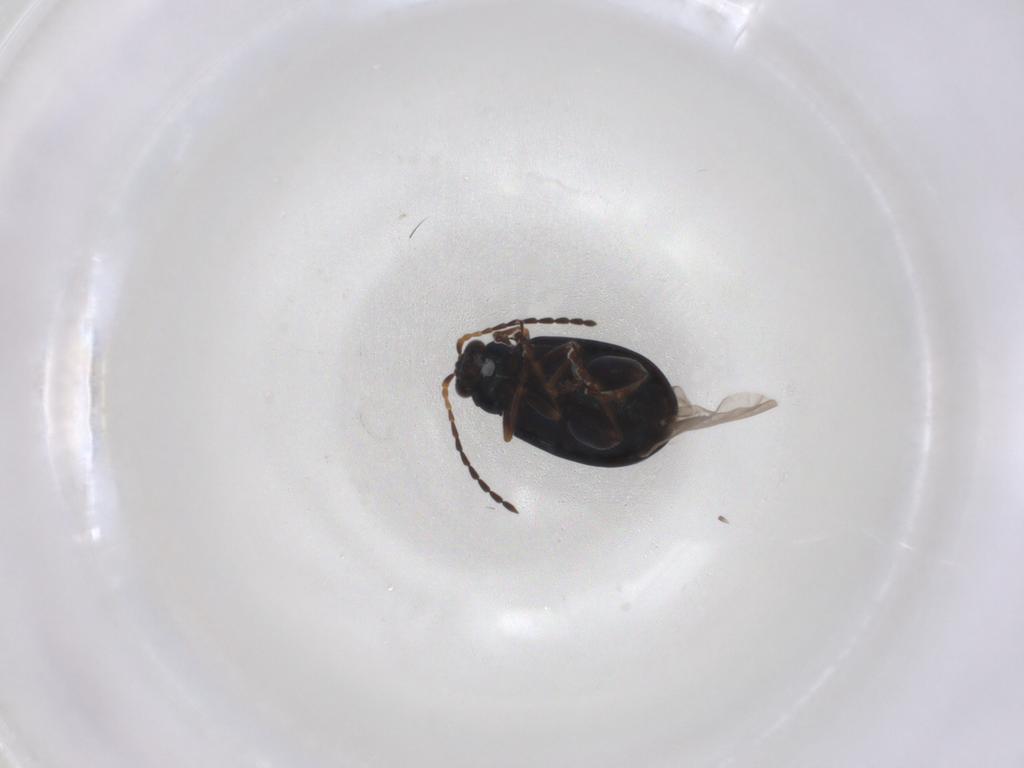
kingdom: Animalia
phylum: Arthropoda
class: Insecta
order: Coleoptera
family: Chrysomelidae
